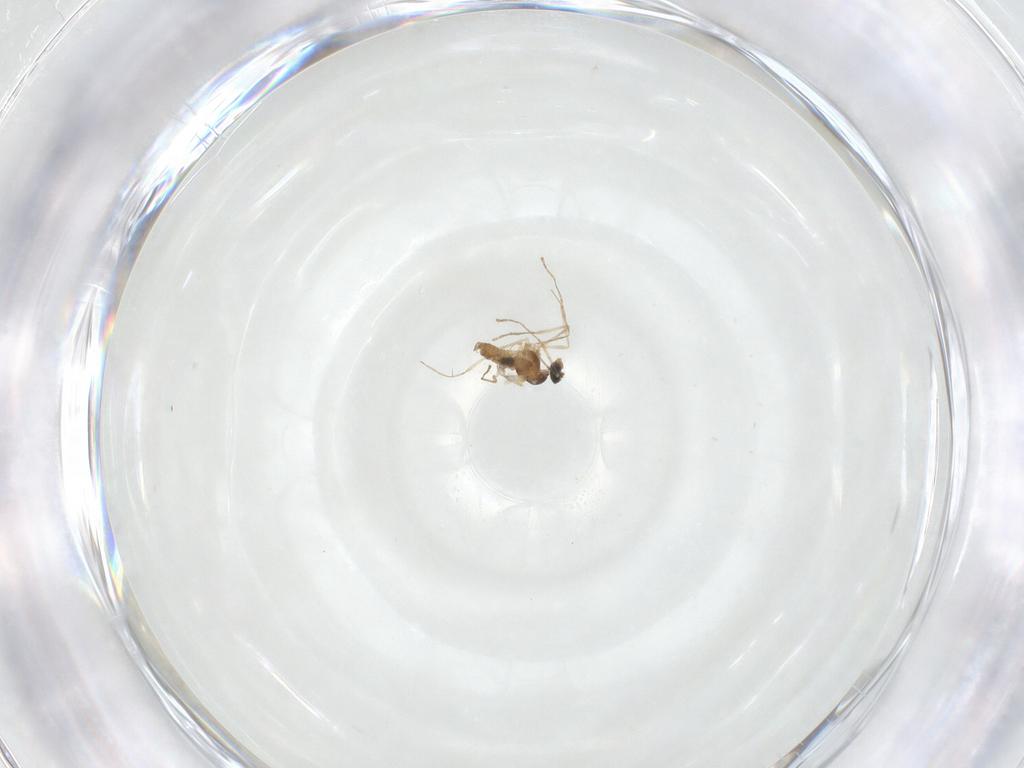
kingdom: Animalia
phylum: Arthropoda
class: Insecta
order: Diptera
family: Cecidomyiidae
